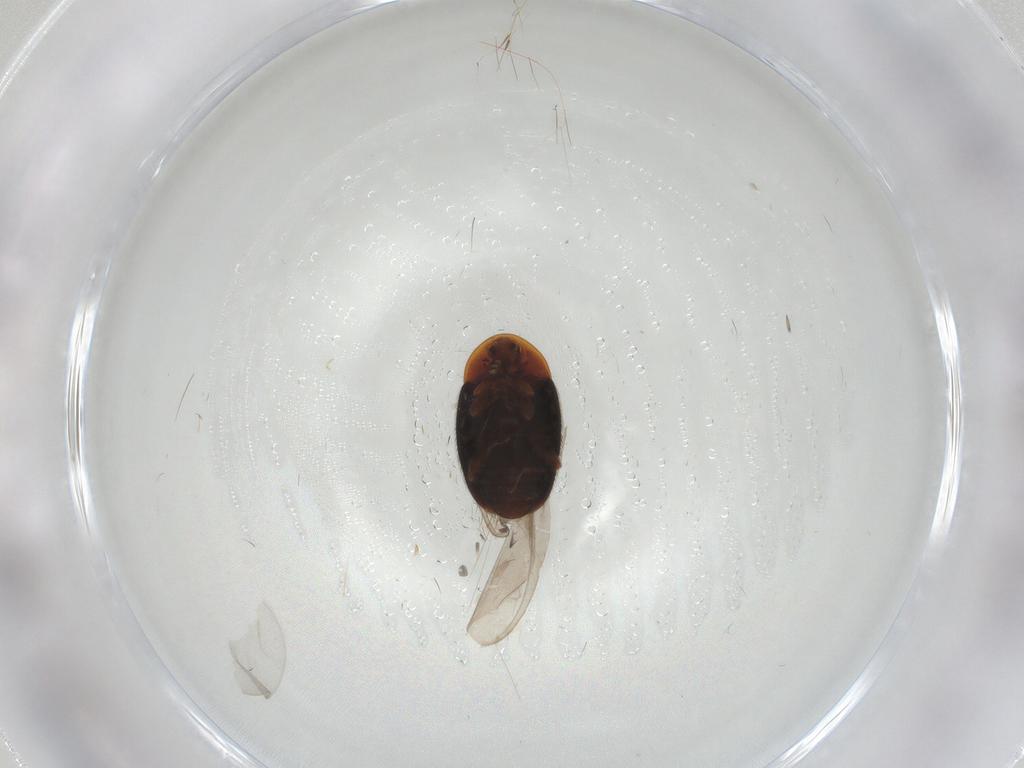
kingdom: Animalia
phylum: Arthropoda
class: Insecta
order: Coleoptera
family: Corylophidae
